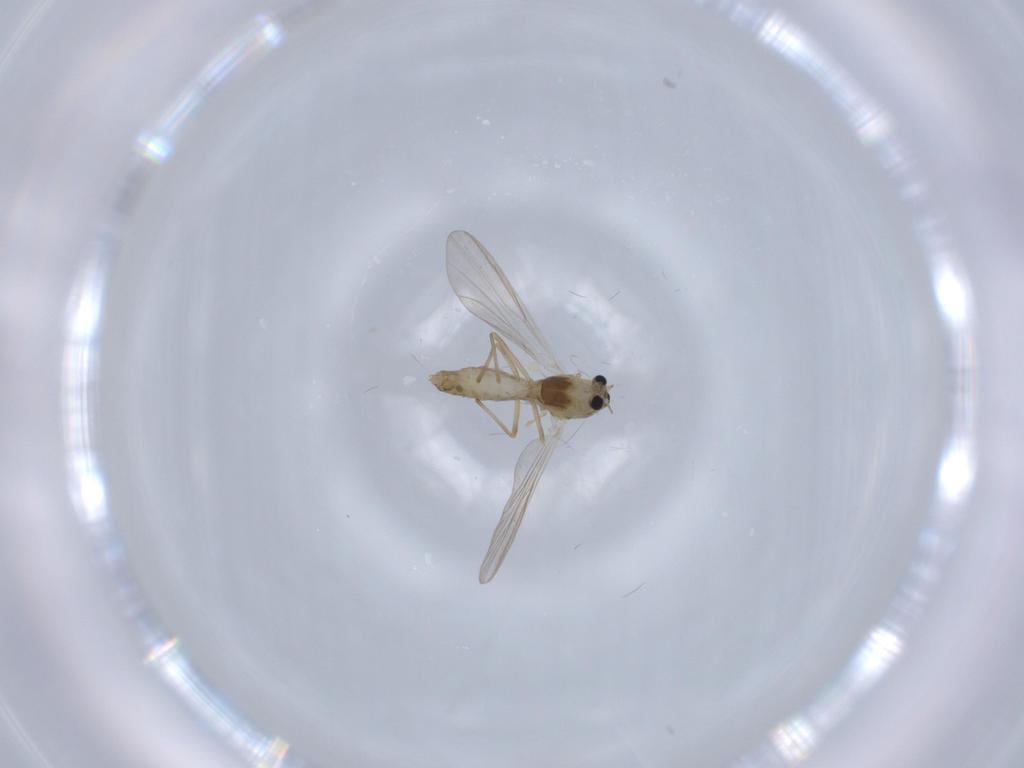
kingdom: Animalia
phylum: Arthropoda
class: Insecta
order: Diptera
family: Chironomidae
